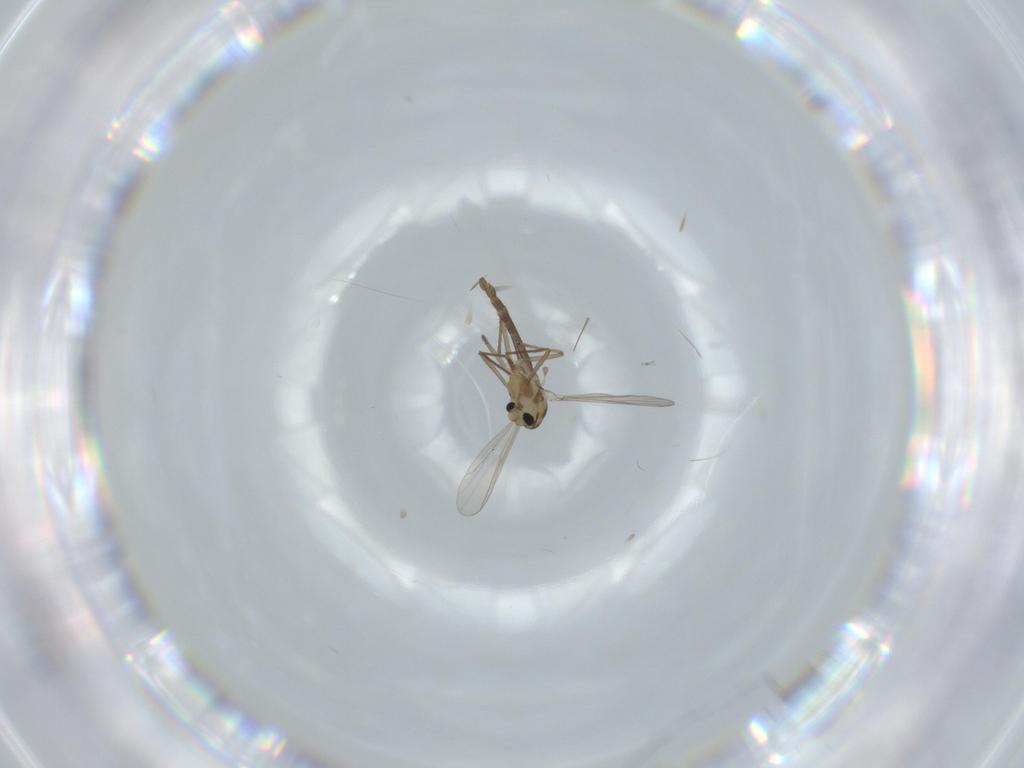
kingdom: Animalia
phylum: Arthropoda
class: Insecta
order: Diptera
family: Chironomidae
